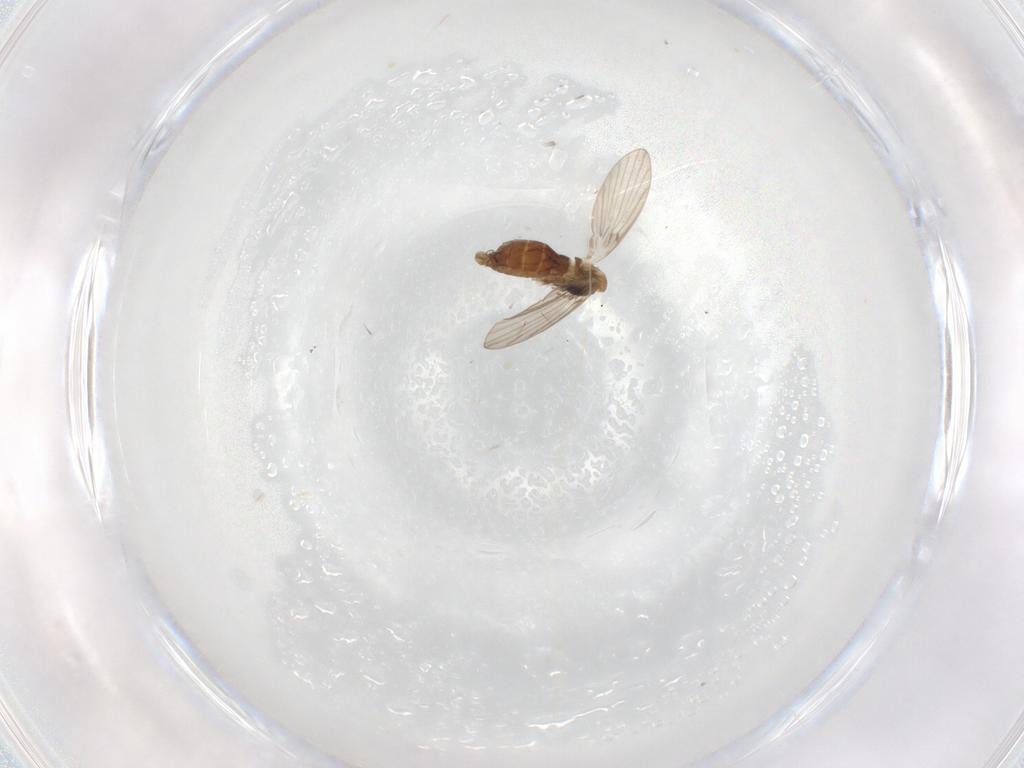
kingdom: Animalia
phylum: Arthropoda
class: Insecta
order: Diptera
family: Psychodidae
